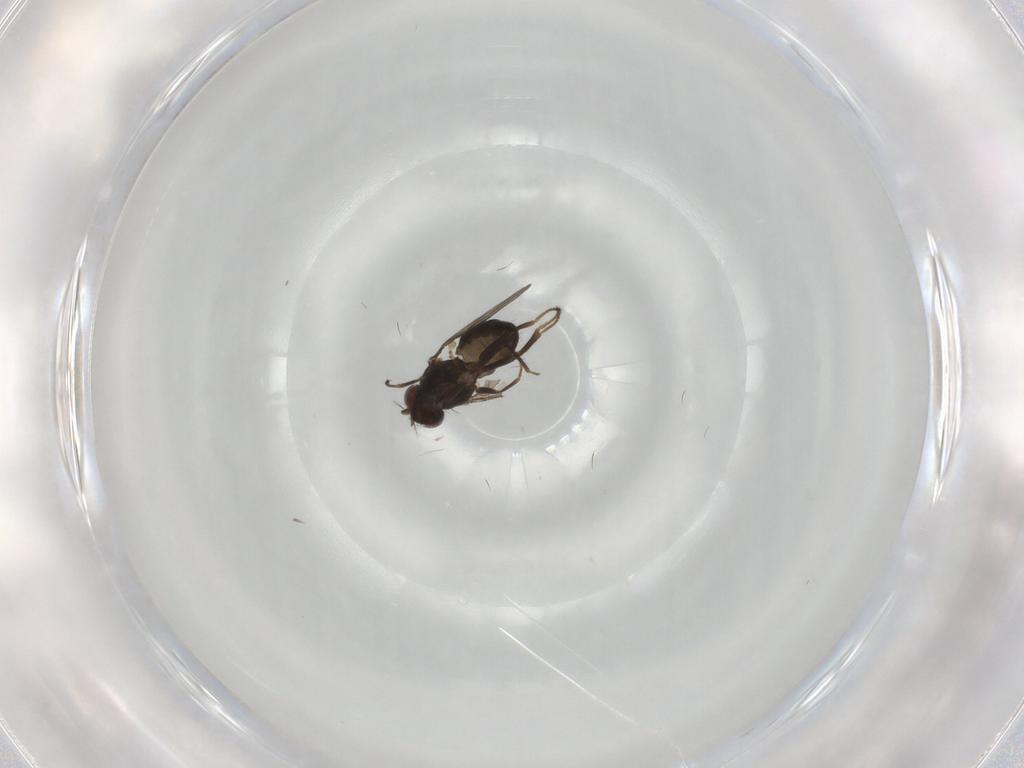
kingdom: Animalia
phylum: Arthropoda
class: Insecta
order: Diptera
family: Ephydridae
